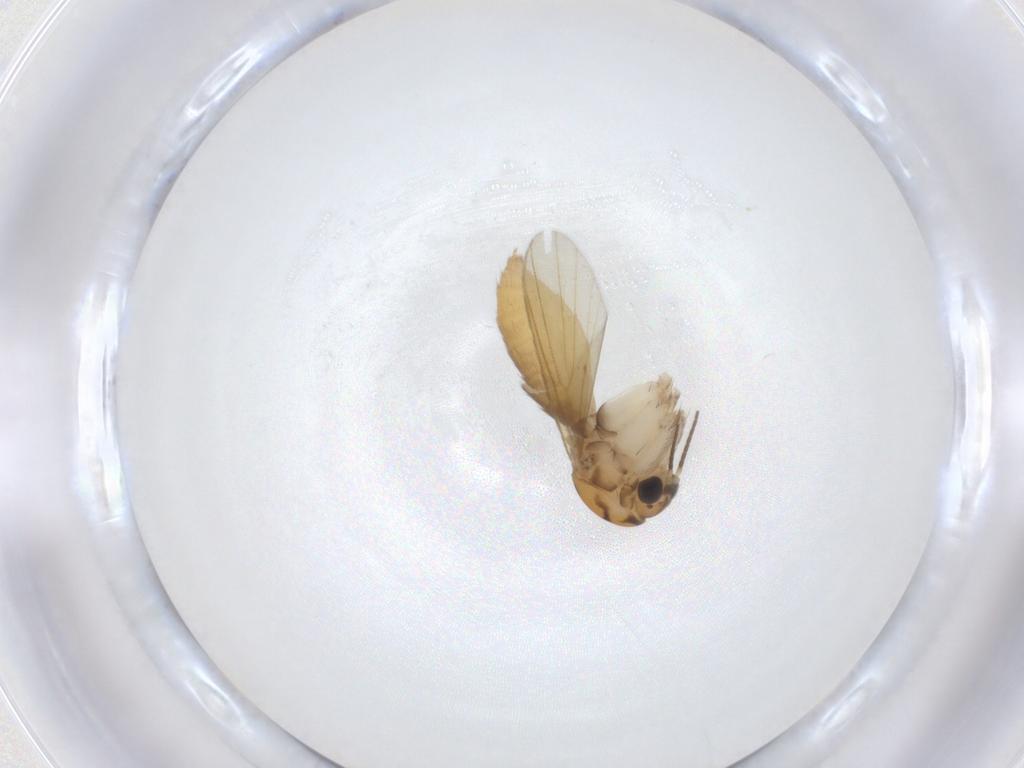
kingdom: Animalia
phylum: Arthropoda
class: Insecta
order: Diptera
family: Mycetophilidae
